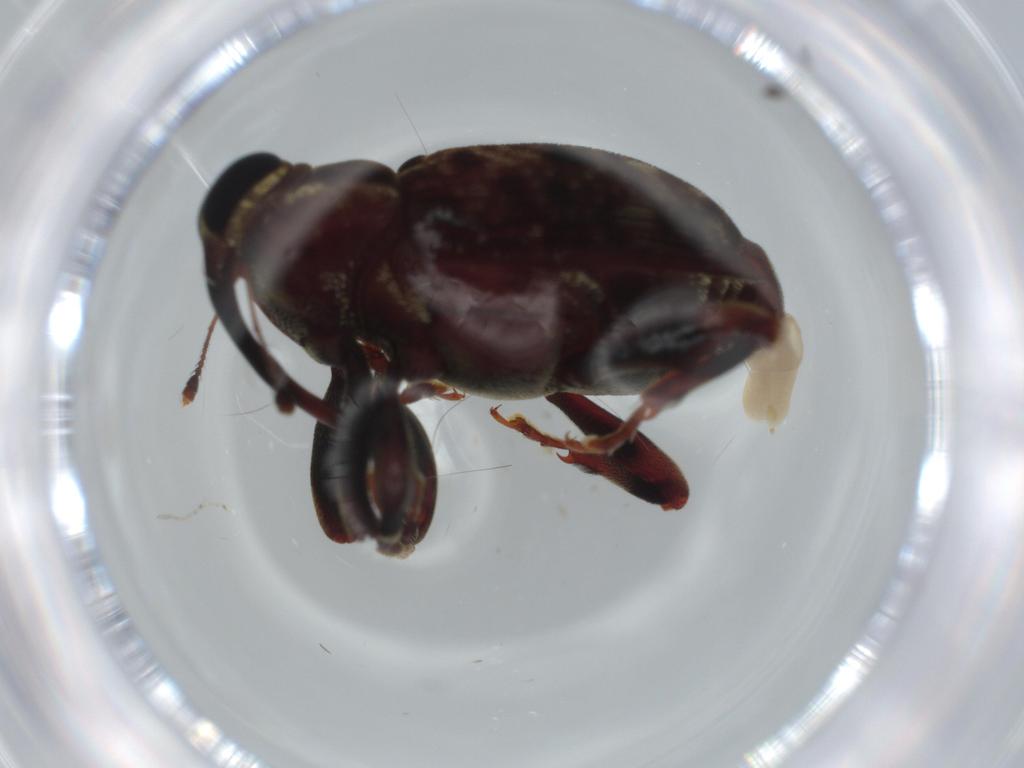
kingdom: Animalia
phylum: Arthropoda
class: Insecta
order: Coleoptera
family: Curculionidae
